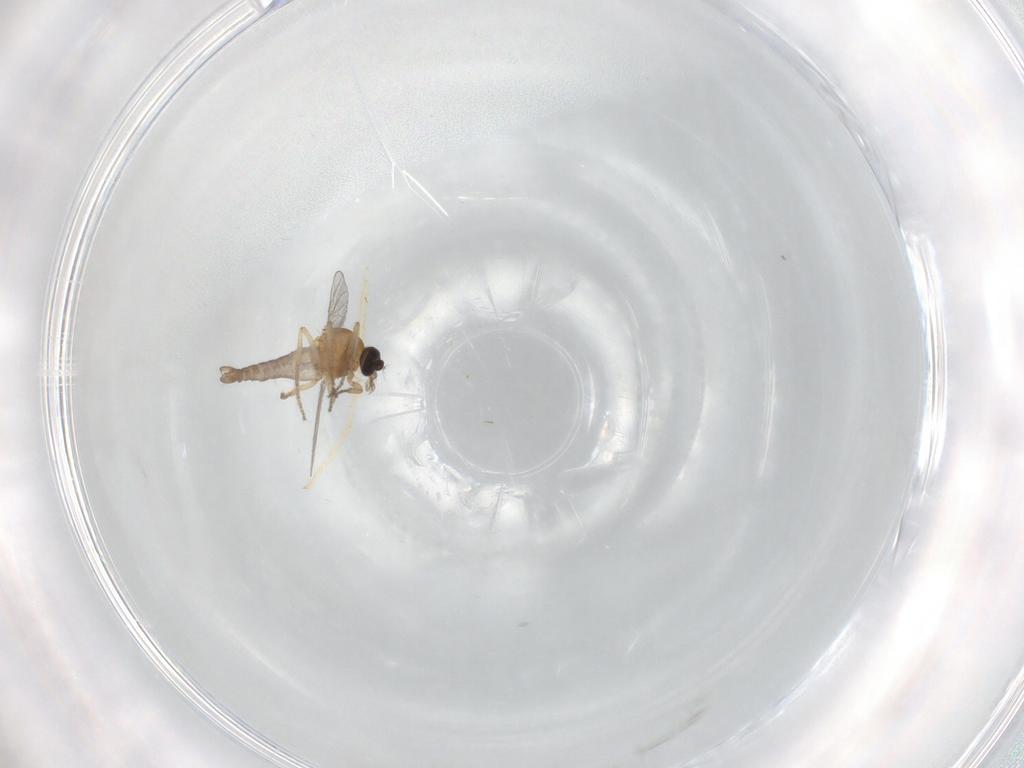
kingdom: Animalia
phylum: Arthropoda
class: Insecta
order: Diptera
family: Chironomidae
